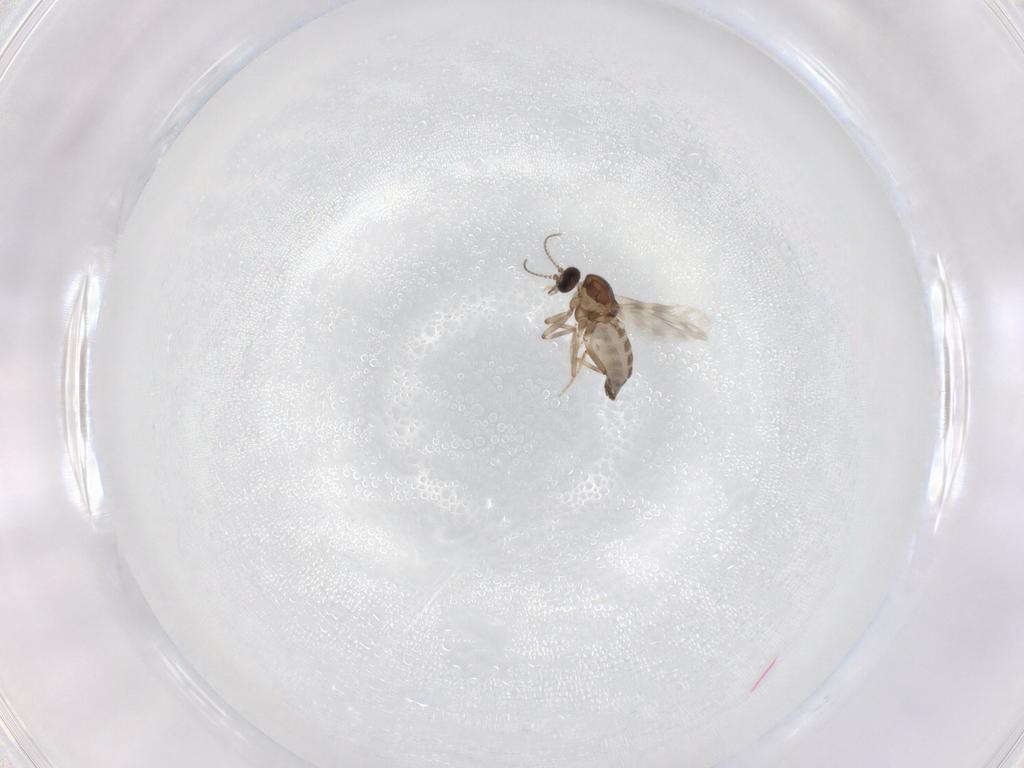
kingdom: Animalia
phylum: Arthropoda
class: Insecta
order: Diptera
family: Ceratopogonidae
